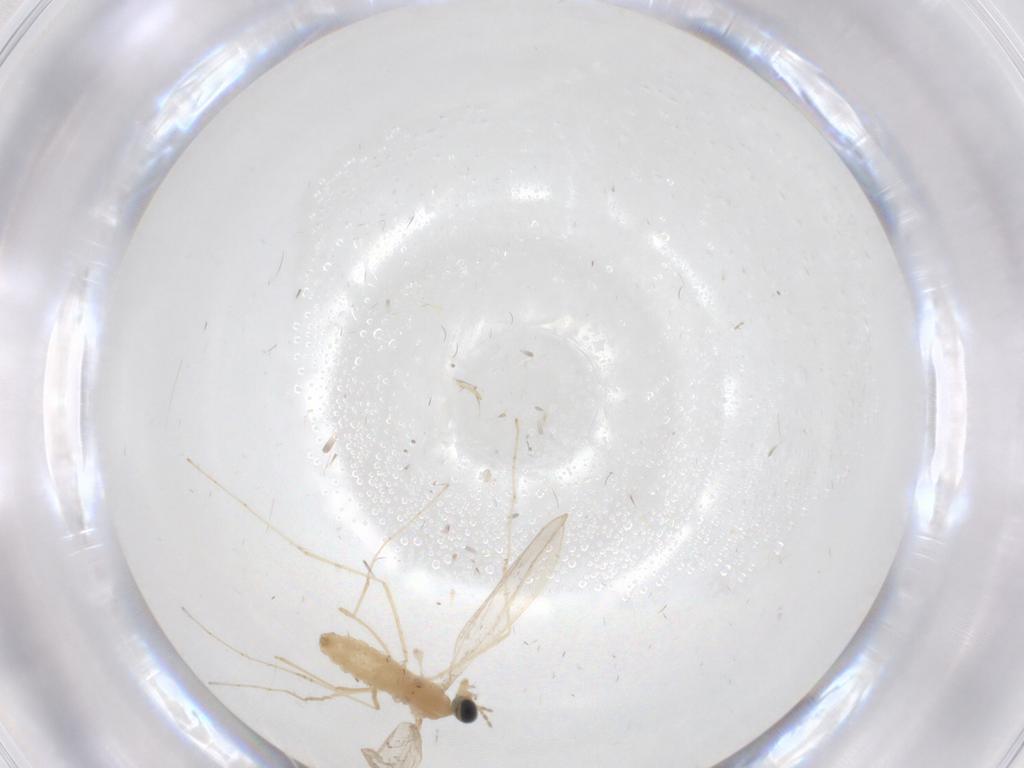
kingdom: Animalia
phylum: Arthropoda
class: Insecta
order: Diptera
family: Cecidomyiidae
